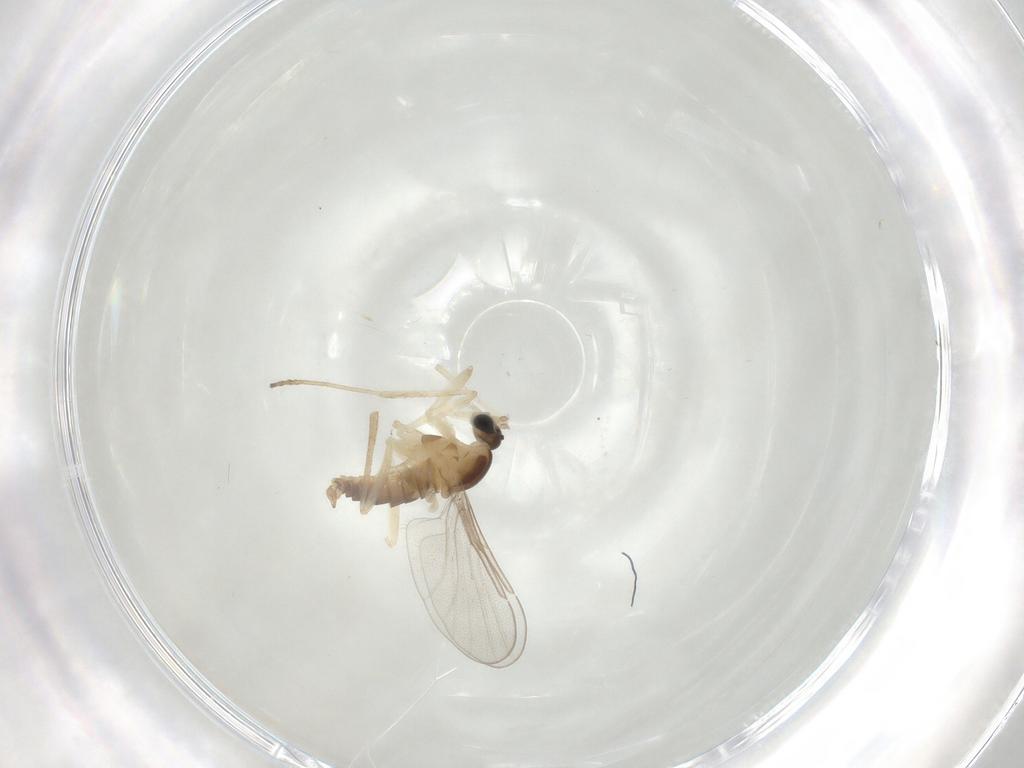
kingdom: Animalia
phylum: Arthropoda
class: Insecta
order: Diptera
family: Cecidomyiidae
